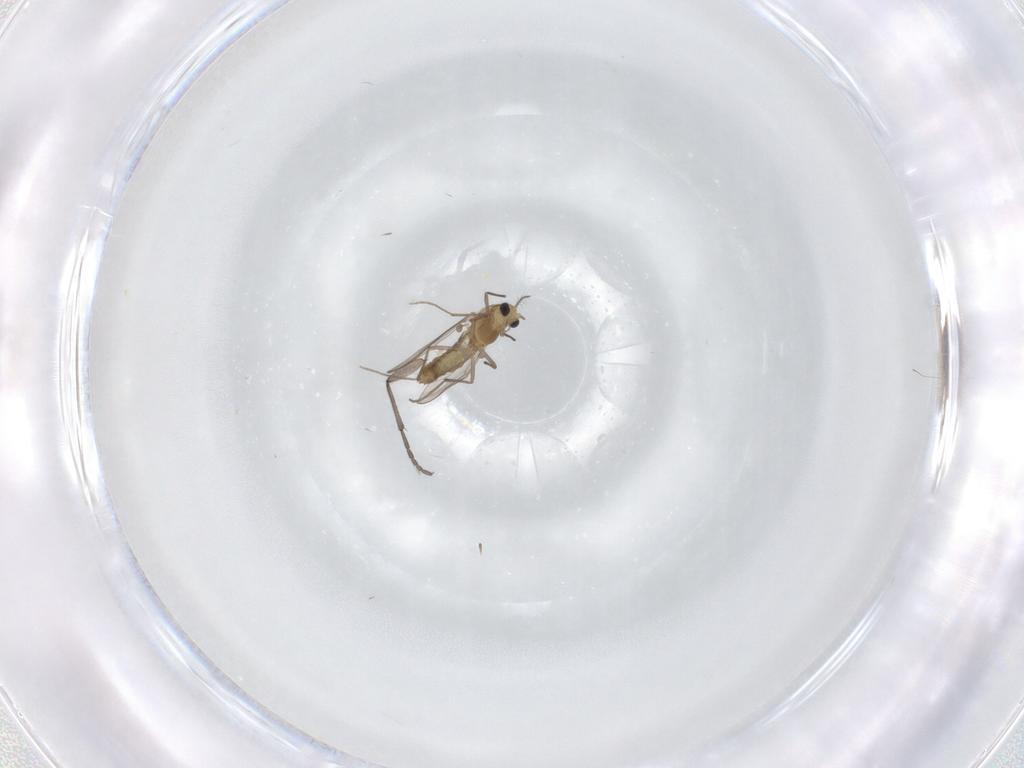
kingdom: Animalia
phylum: Arthropoda
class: Insecta
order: Diptera
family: Sciaridae
